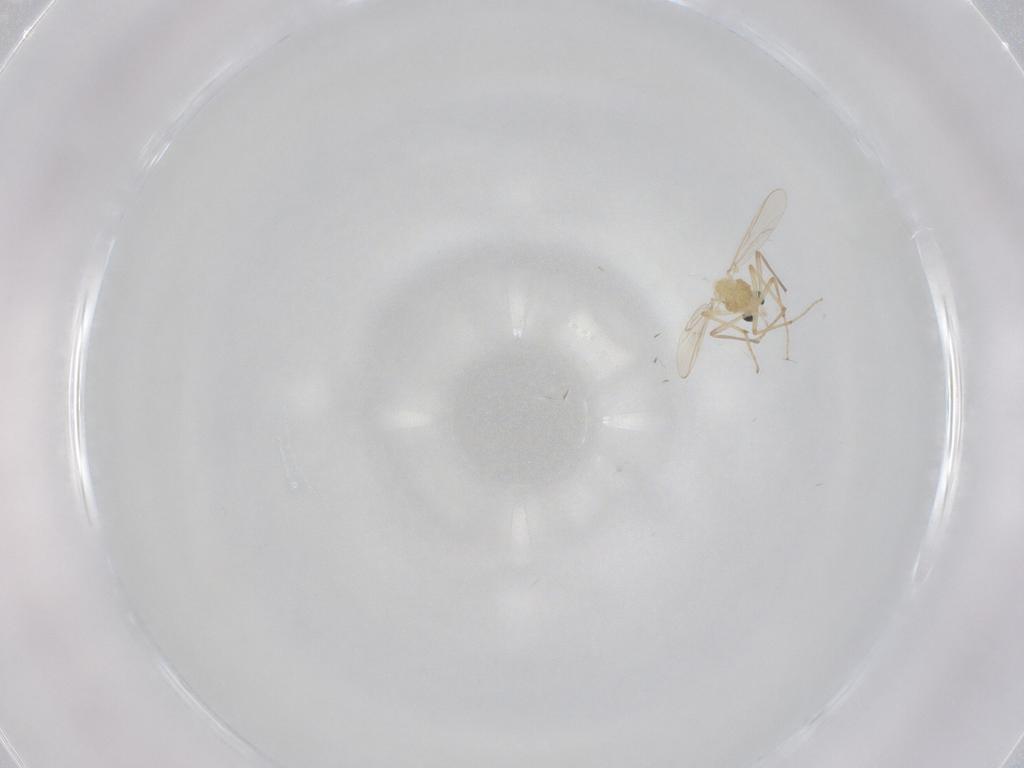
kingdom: Animalia
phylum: Arthropoda
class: Insecta
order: Diptera
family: Chironomidae
